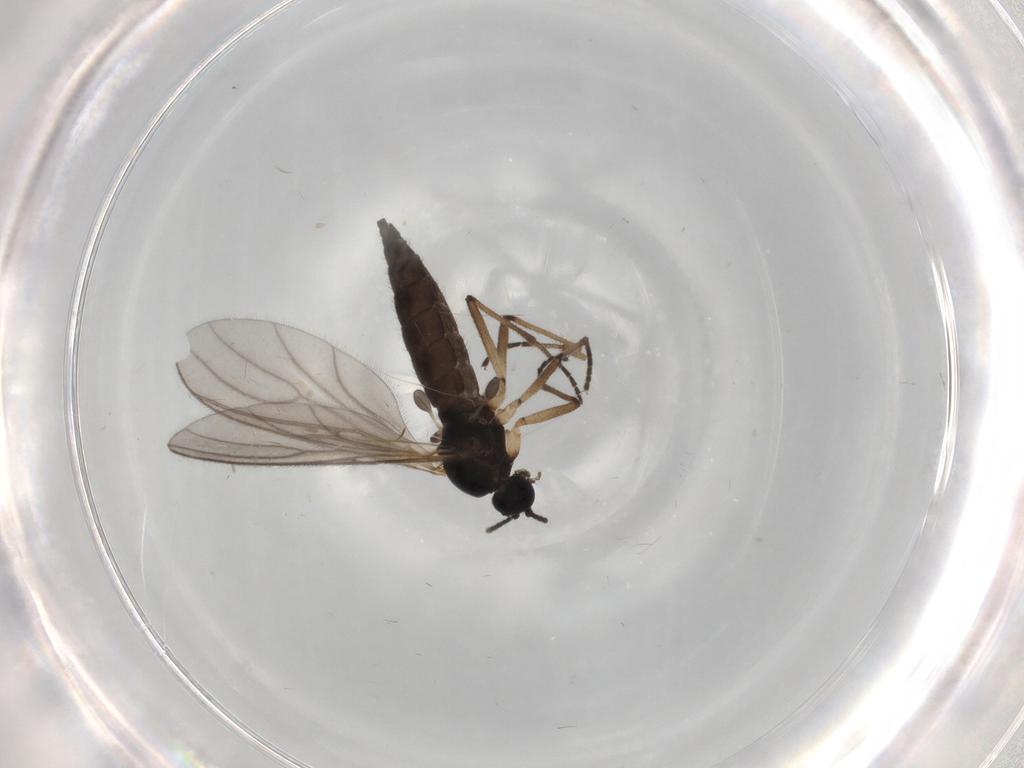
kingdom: Animalia
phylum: Arthropoda
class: Insecta
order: Diptera
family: Sciaridae
